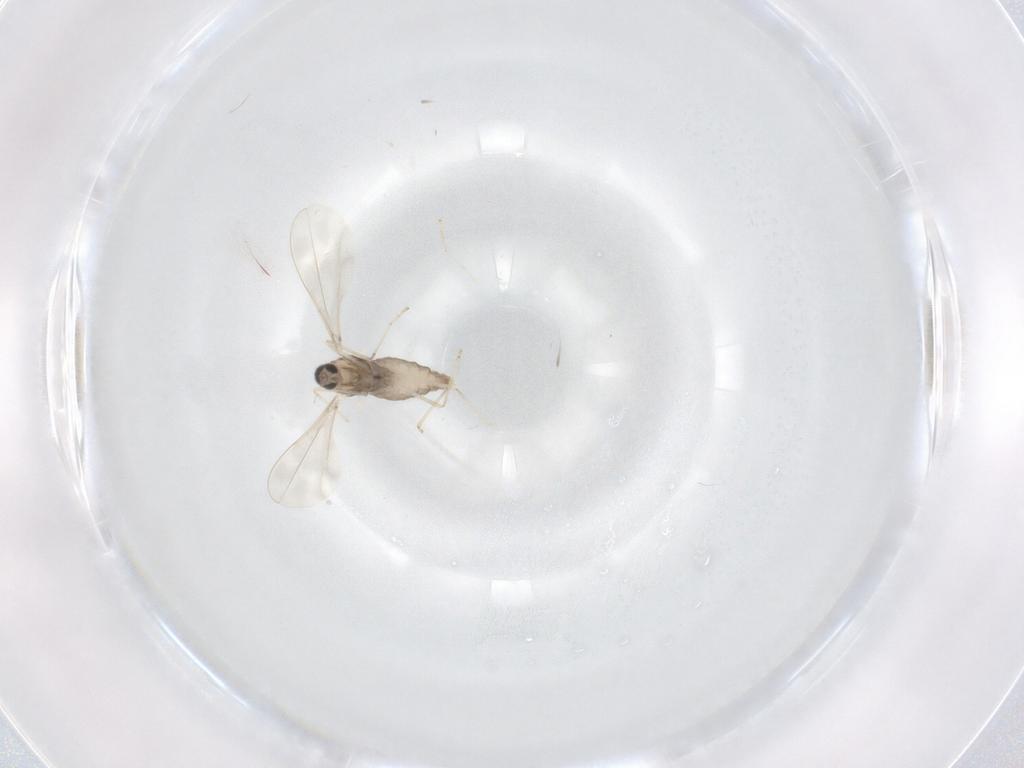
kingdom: Animalia
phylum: Arthropoda
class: Insecta
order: Diptera
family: Cecidomyiidae
